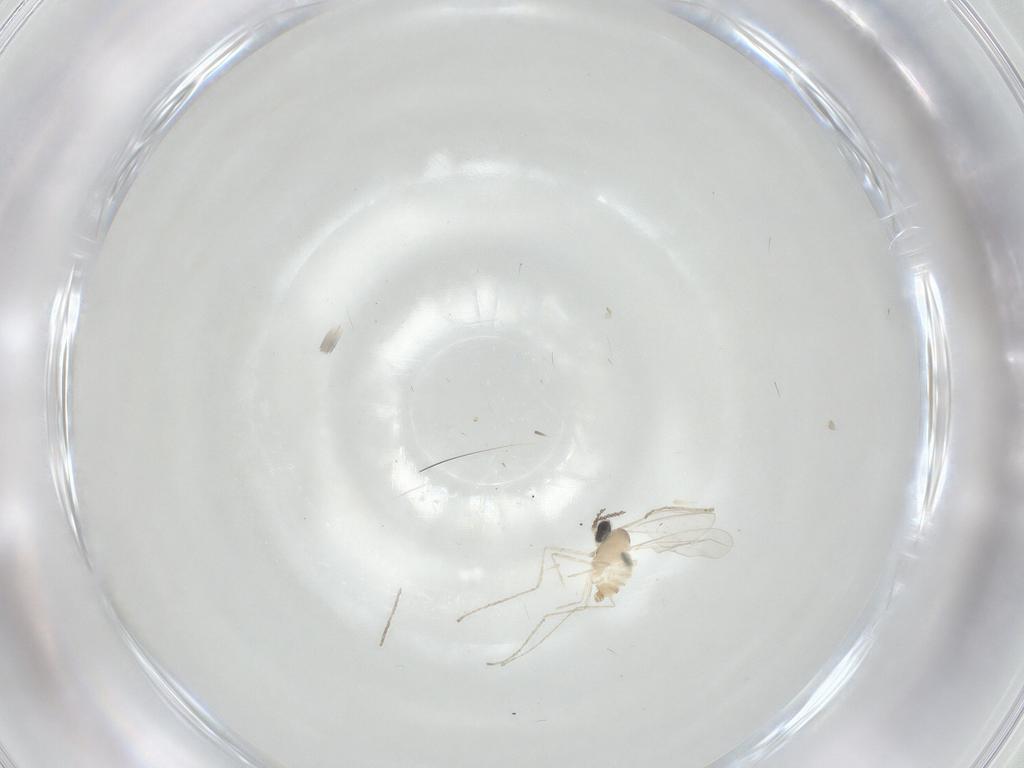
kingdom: Animalia
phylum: Arthropoda
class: Insecta
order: Diptera
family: Cecidomyiidae
